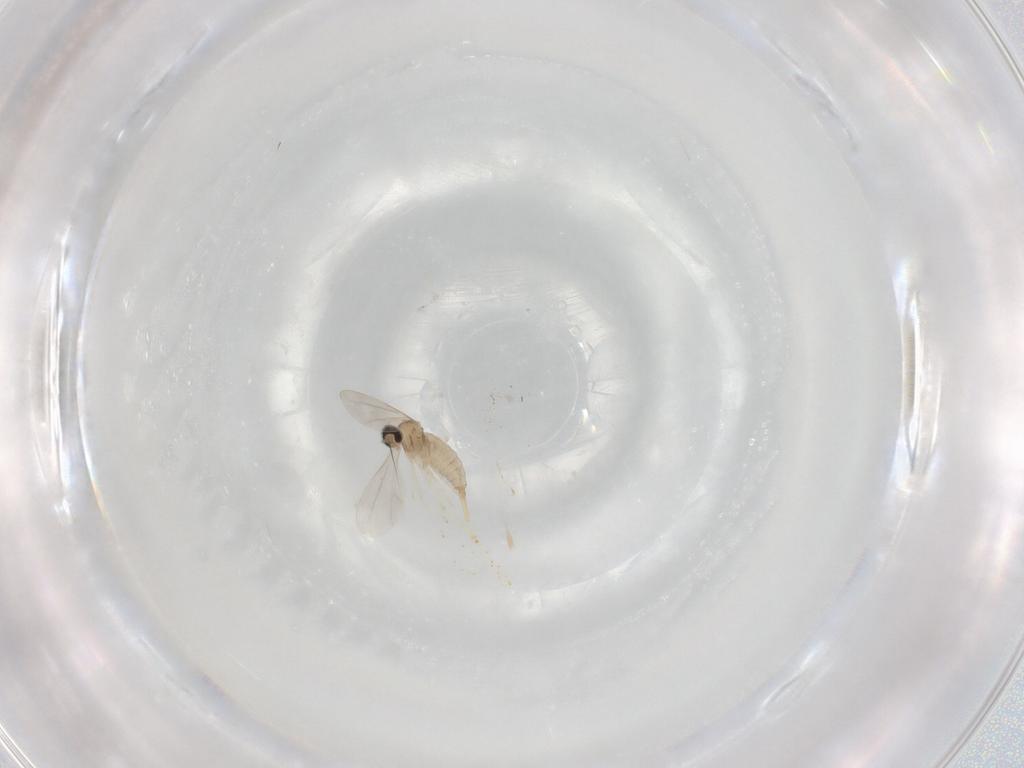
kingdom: Animalia
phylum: Arthropoda
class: Insecta
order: Diptera
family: Cecidomyiidae
